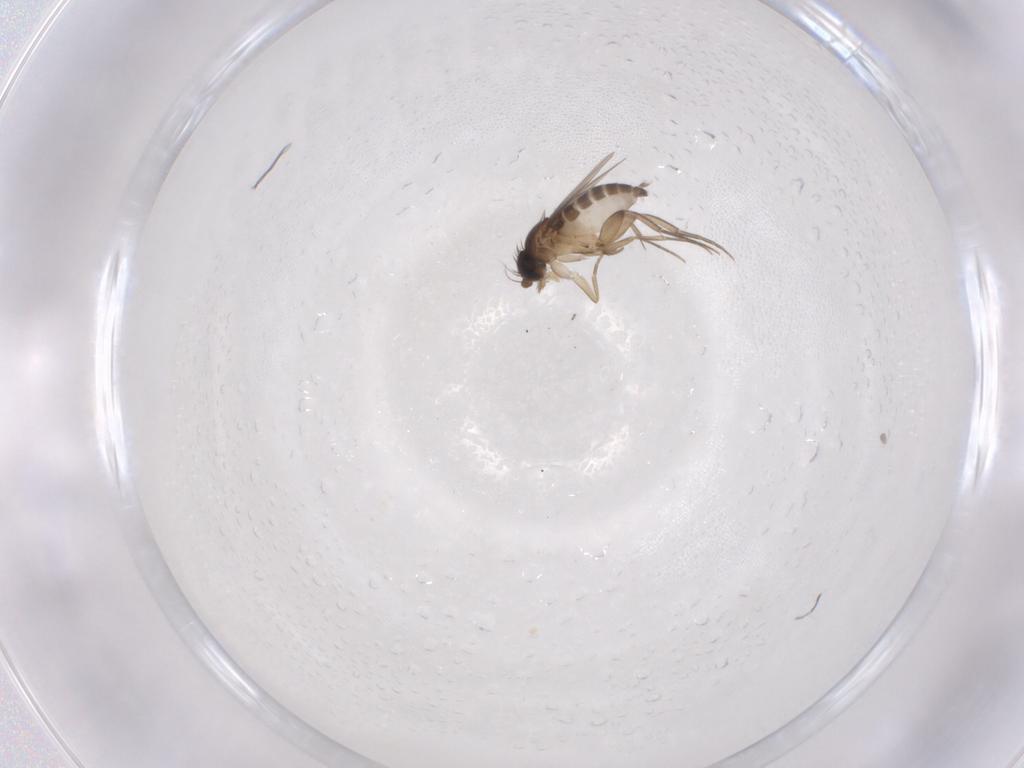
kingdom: Animalia
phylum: Arthropoda
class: Insecta
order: Diptera
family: Phoridae
